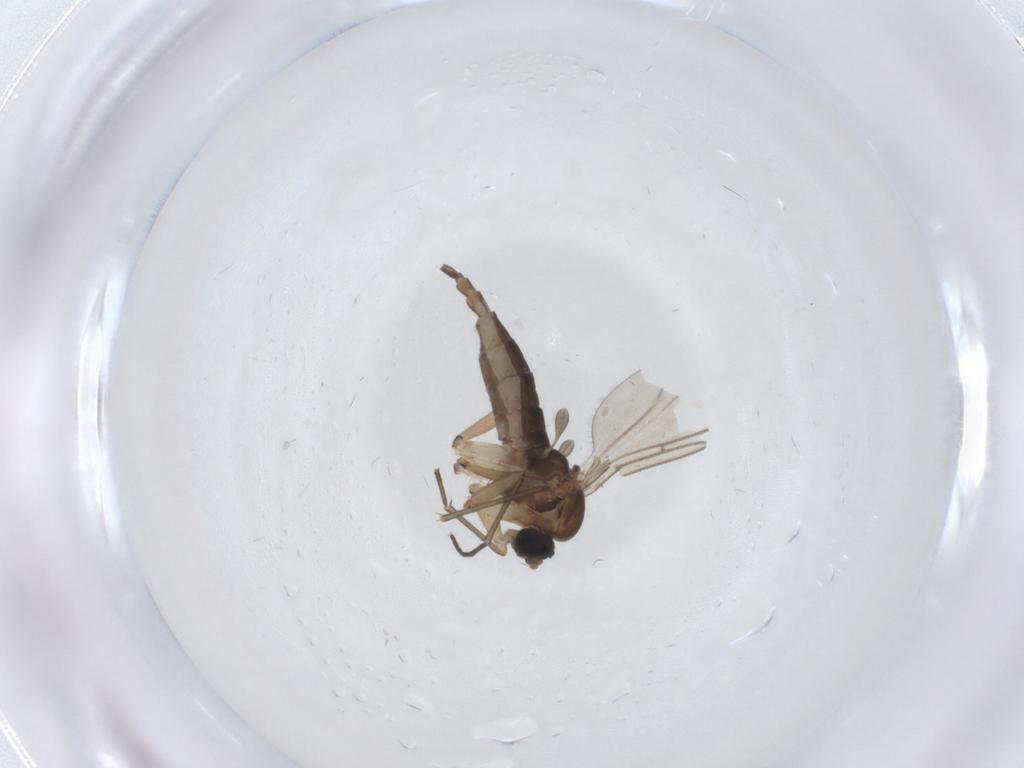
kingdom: Animalia
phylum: Arthropoda
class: Insecta
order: Diptera
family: Sciaridae
